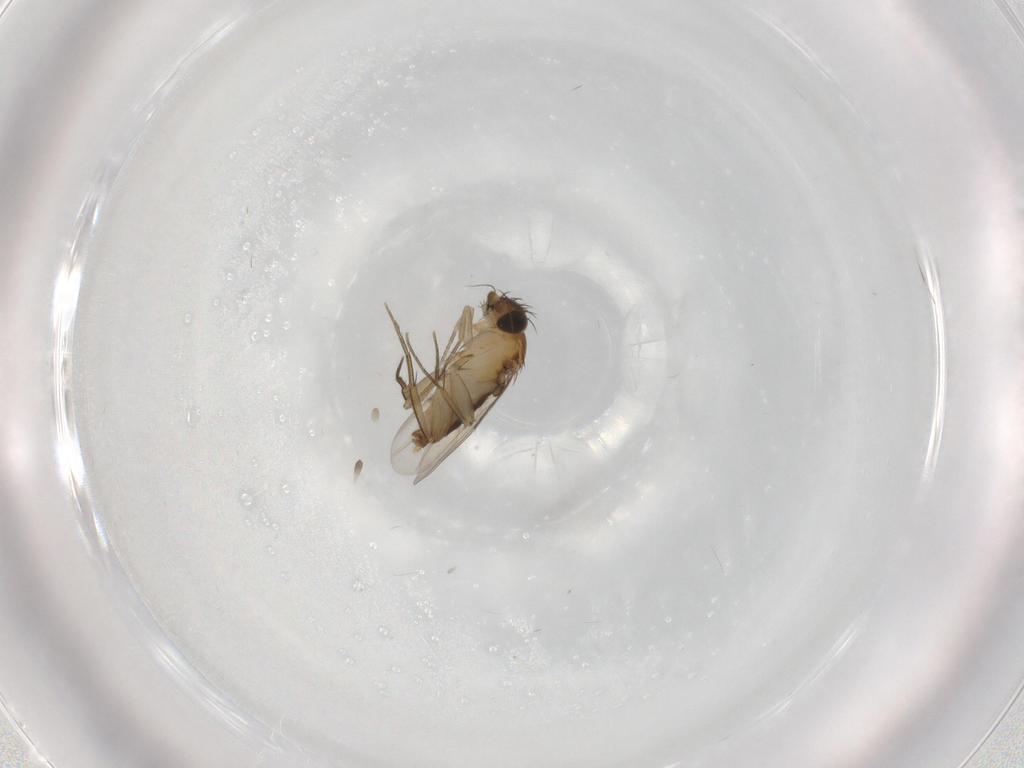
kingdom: Animalia
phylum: Arthropoda
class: Insecta
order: Diptera
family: Phoridae
